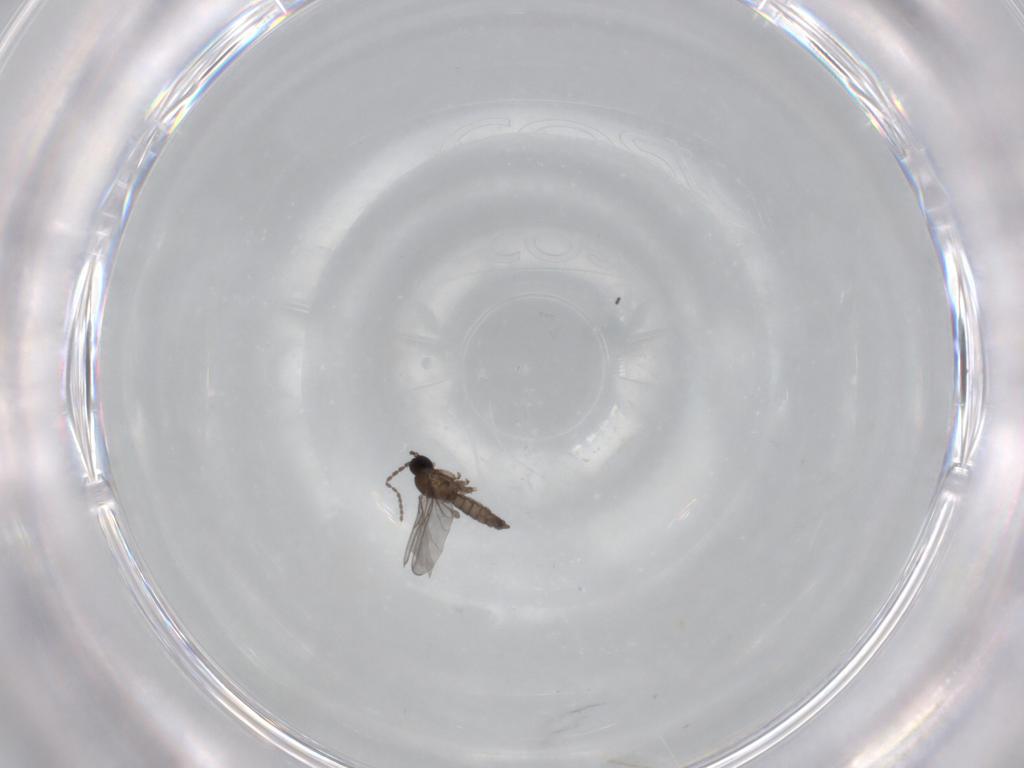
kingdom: Animalia
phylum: Arthropoda
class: Insecta
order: Diptera
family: Sciaridae
